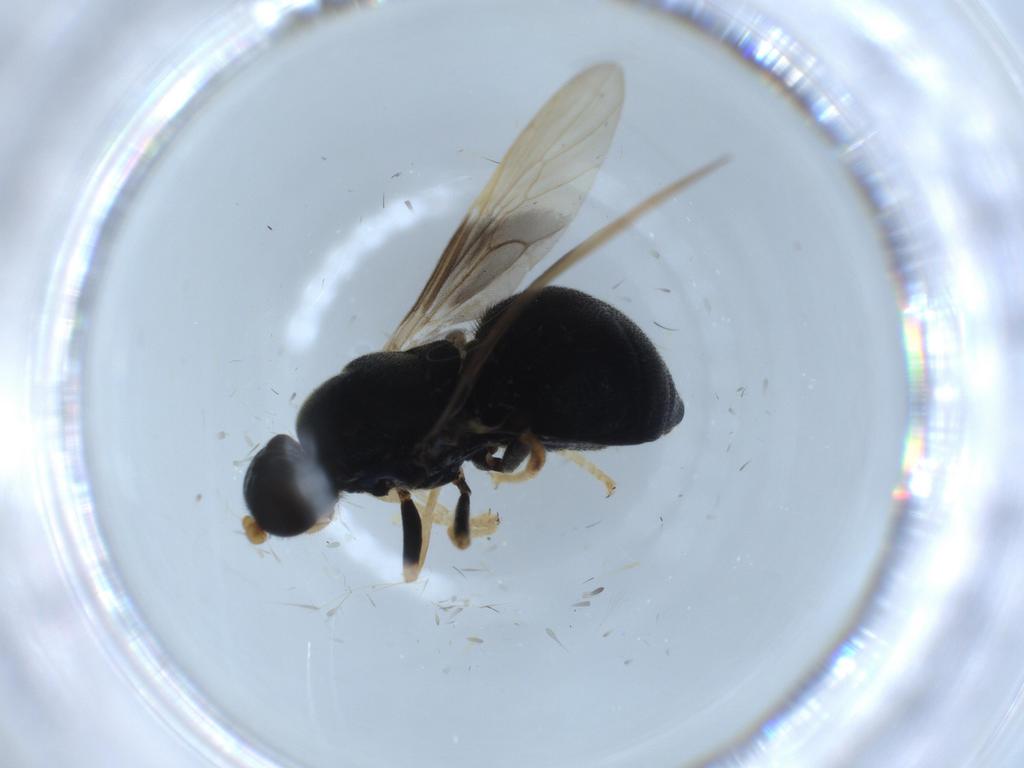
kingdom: Animalia
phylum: Arthropoda
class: Insecta
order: Diptera
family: Stratiomyidae
